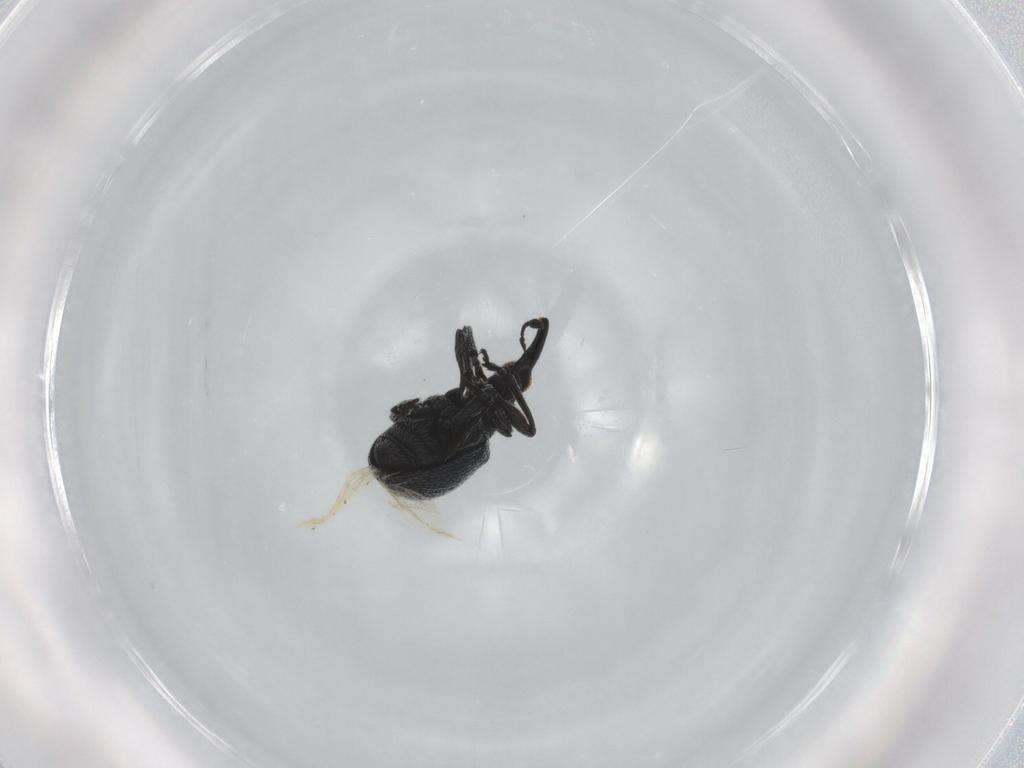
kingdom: Animalia
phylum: Arthropoda
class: Insecta
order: Coleoptera
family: Brentidae
